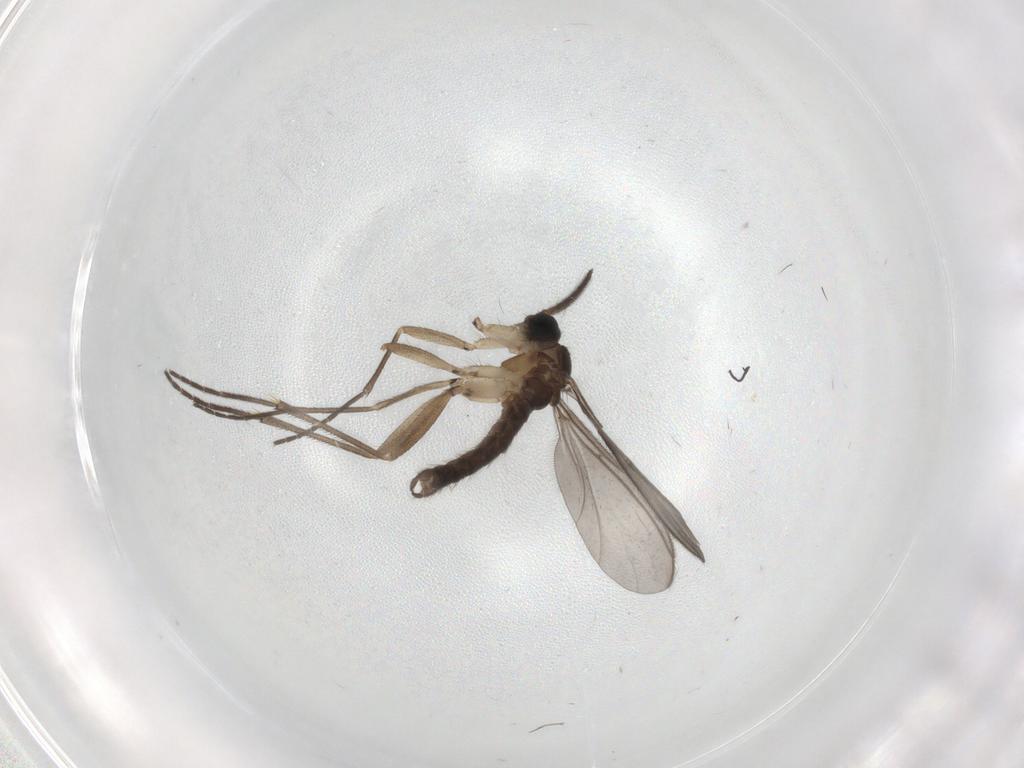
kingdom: Animalia
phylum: Arthropoda
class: Insecta
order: Diptera
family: Sciaridae
